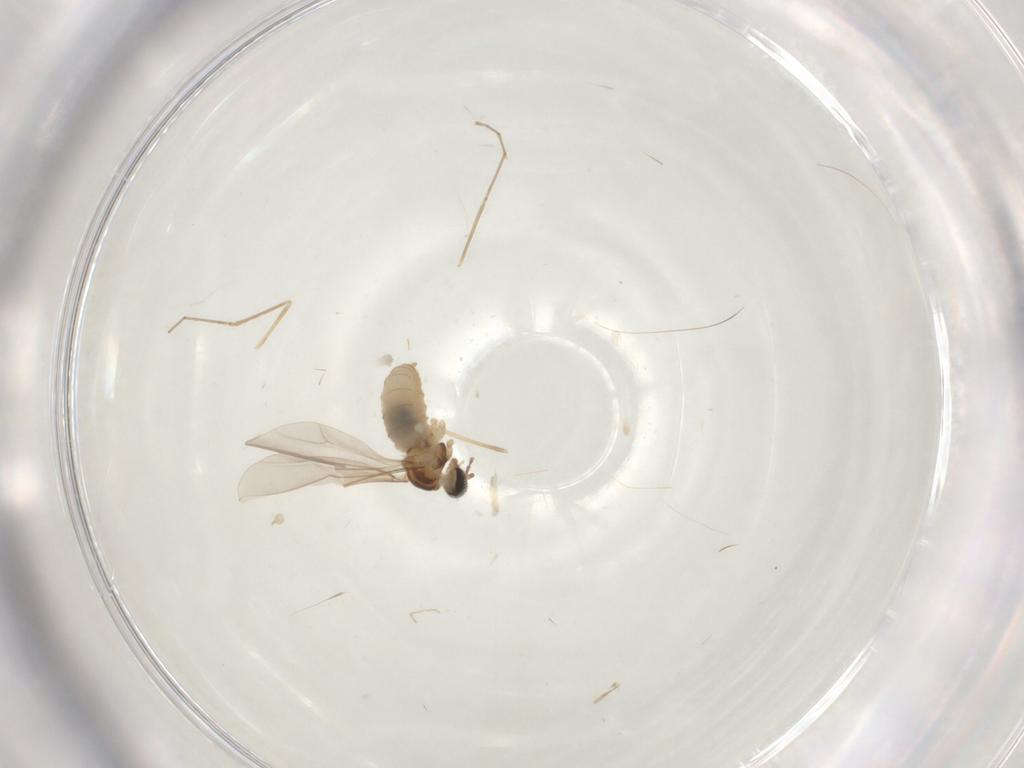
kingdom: Animalia
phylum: Arthropoda
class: Insecta
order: Diptera
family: Cecidomyiidae
